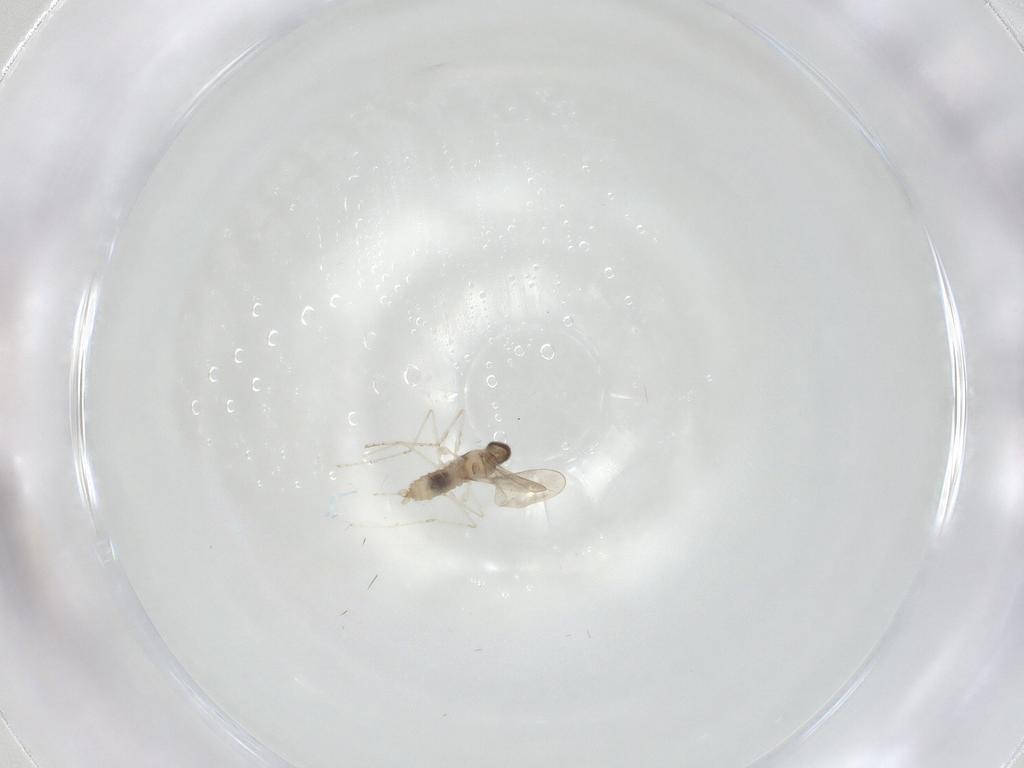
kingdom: Animalia
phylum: Arthropoda
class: Insecta
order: Diptera
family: Cecidomyiidae
